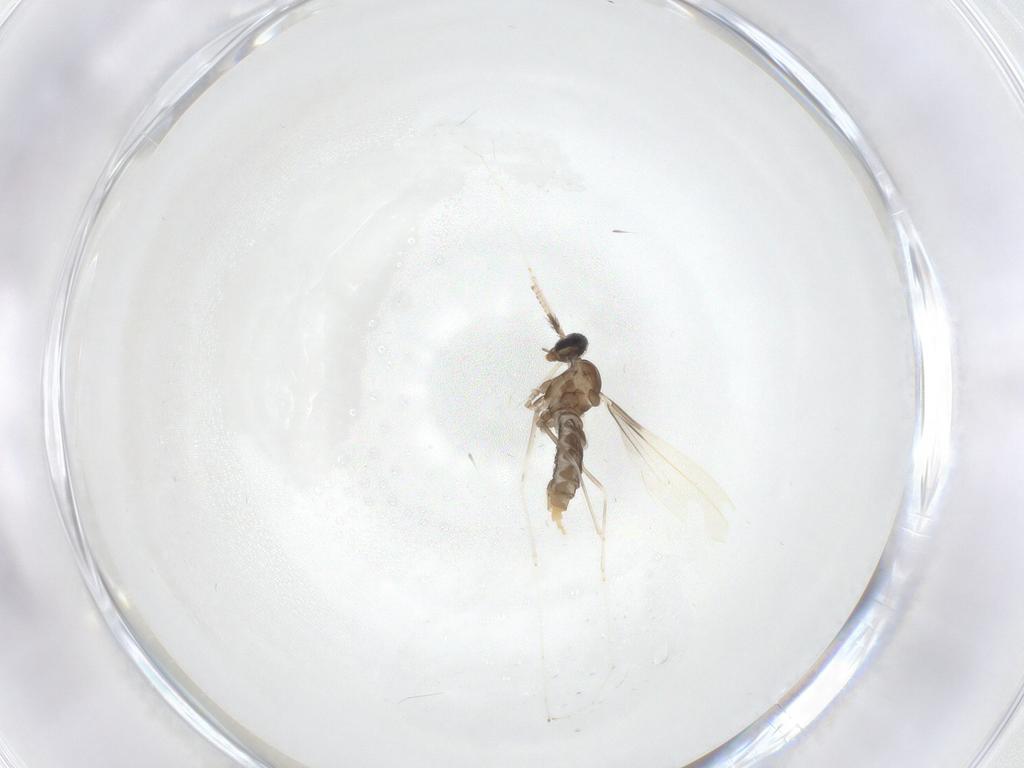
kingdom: Animalia
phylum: Arthropoda
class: Insecta
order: Diptera
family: Cecidomyiidae
